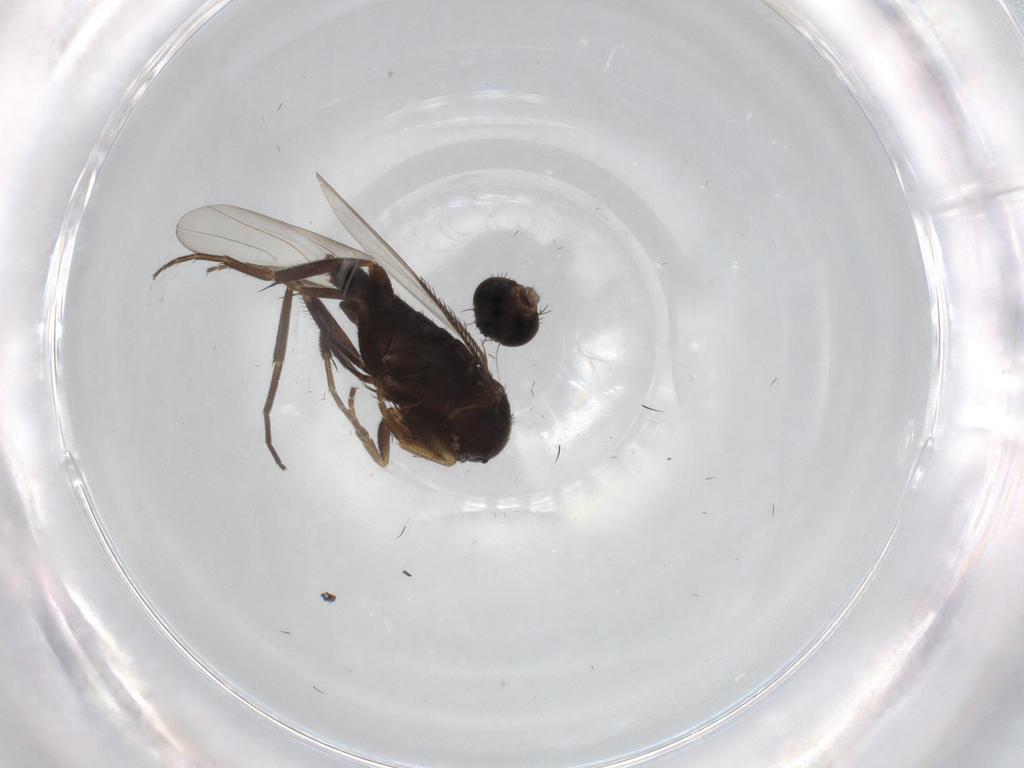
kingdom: Animalia
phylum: Arthropoda
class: Insecta
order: Diptera
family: Phoridae
